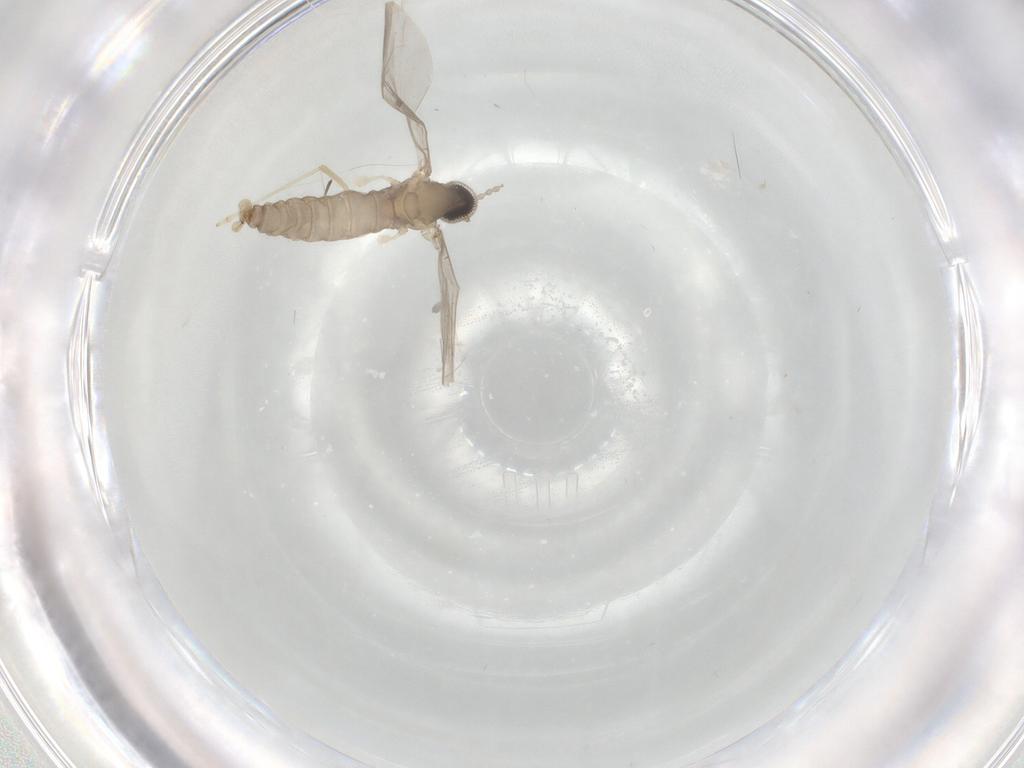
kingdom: Animalia
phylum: Arthropoda
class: Insecta
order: Diptera
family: Cecidomyiidae
